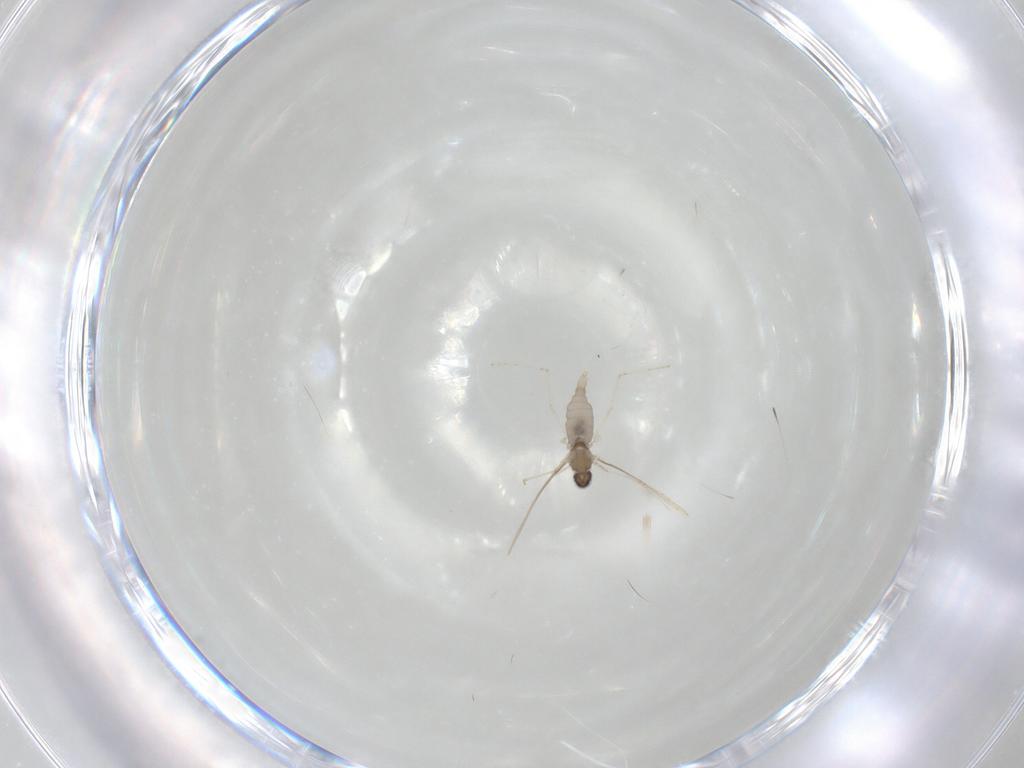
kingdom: Animalia
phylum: Arthropoda
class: Insecta
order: Diptera
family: Cecidomyiidae
